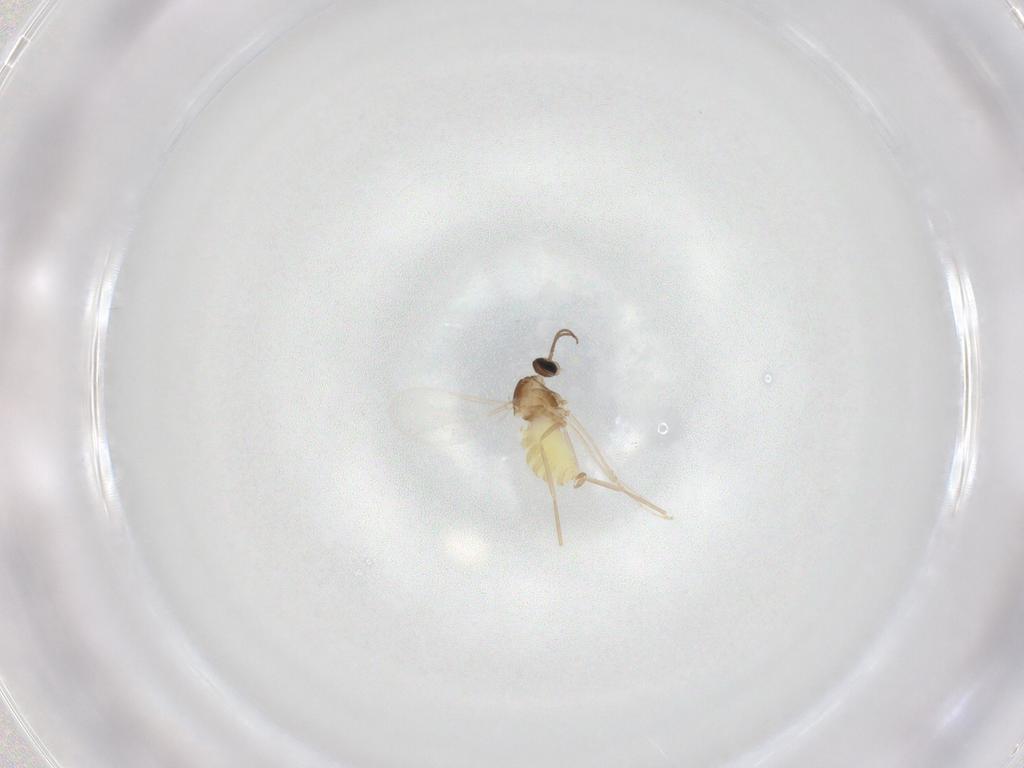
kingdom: Animalia
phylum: Arthropoda
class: Insecta
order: Diptera
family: Cecidomyiidae
